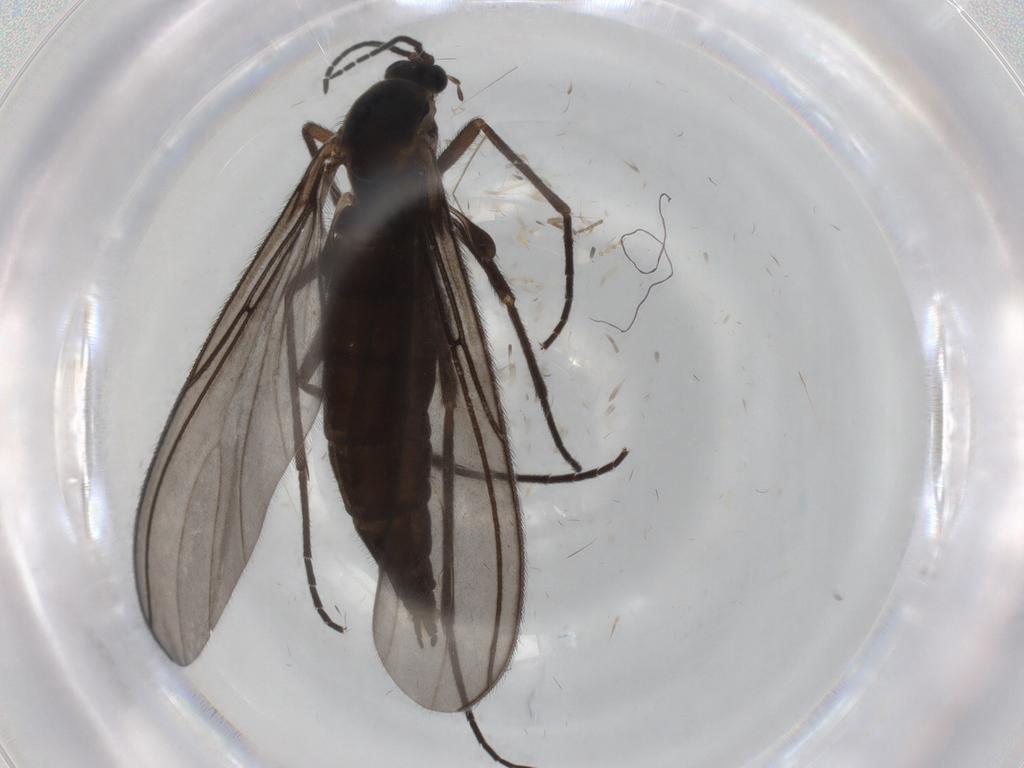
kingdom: Animalia
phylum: Arthropoda
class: Insecta
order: Diptera
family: Sciaridae
